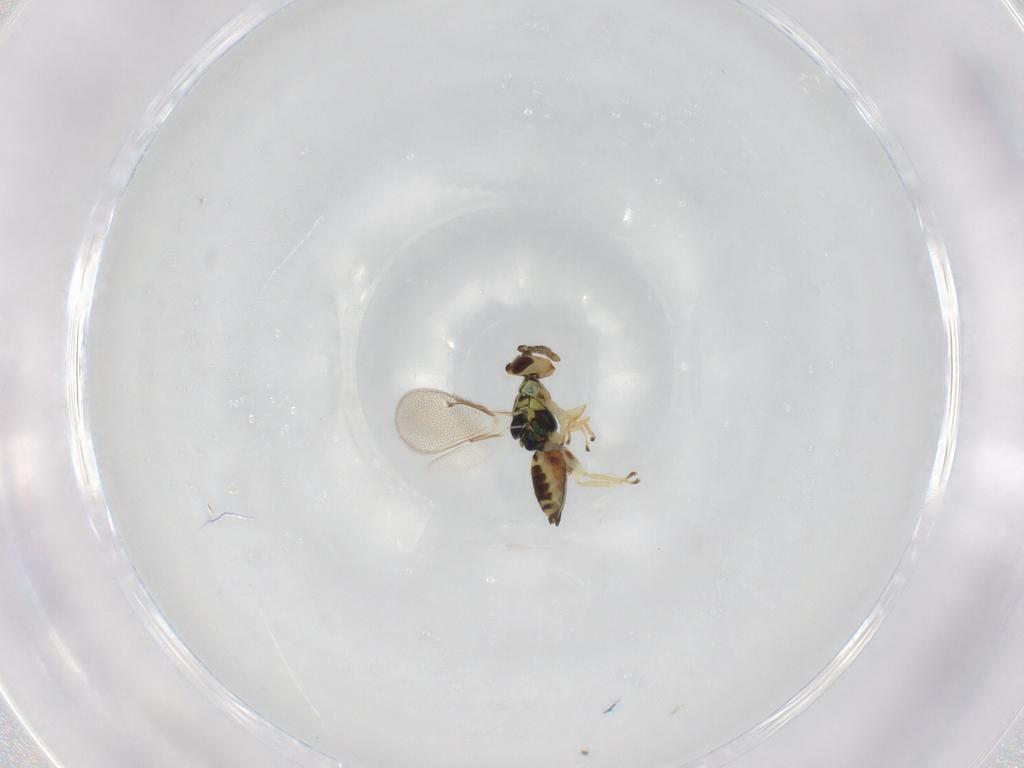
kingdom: Animalia
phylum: Arthropoda
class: Insecta
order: Hymenoptera
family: Eulophidae
